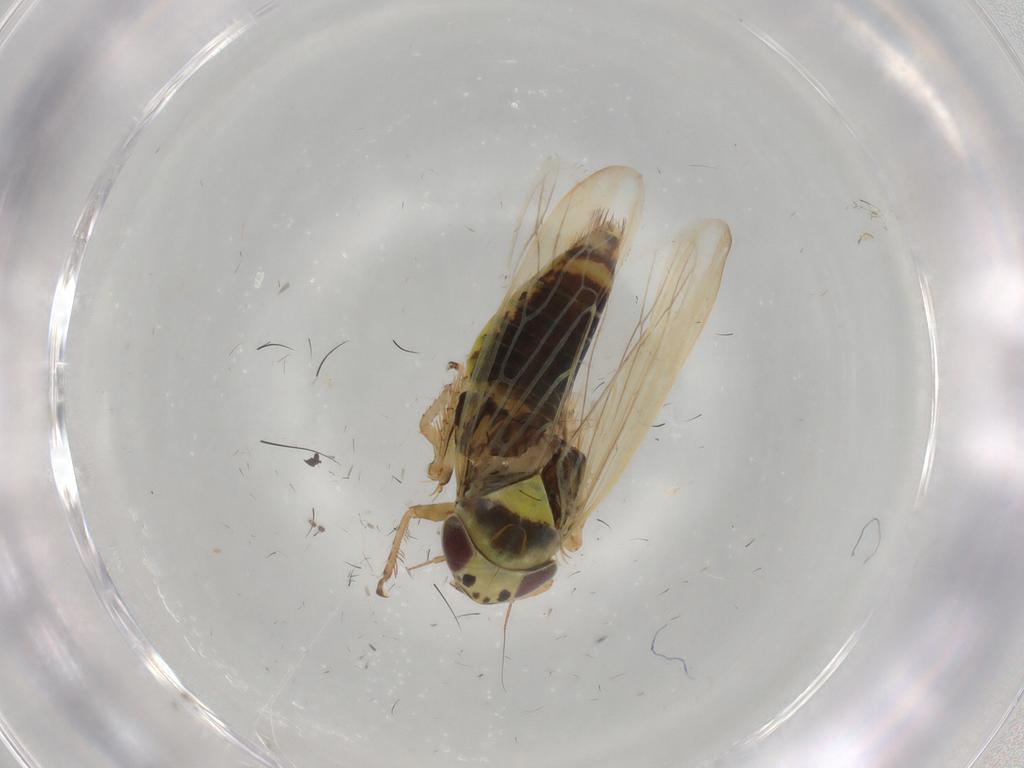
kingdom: Animalia
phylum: Arthropoda
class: Insecta
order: Hemiptera
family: Cicadellidae
